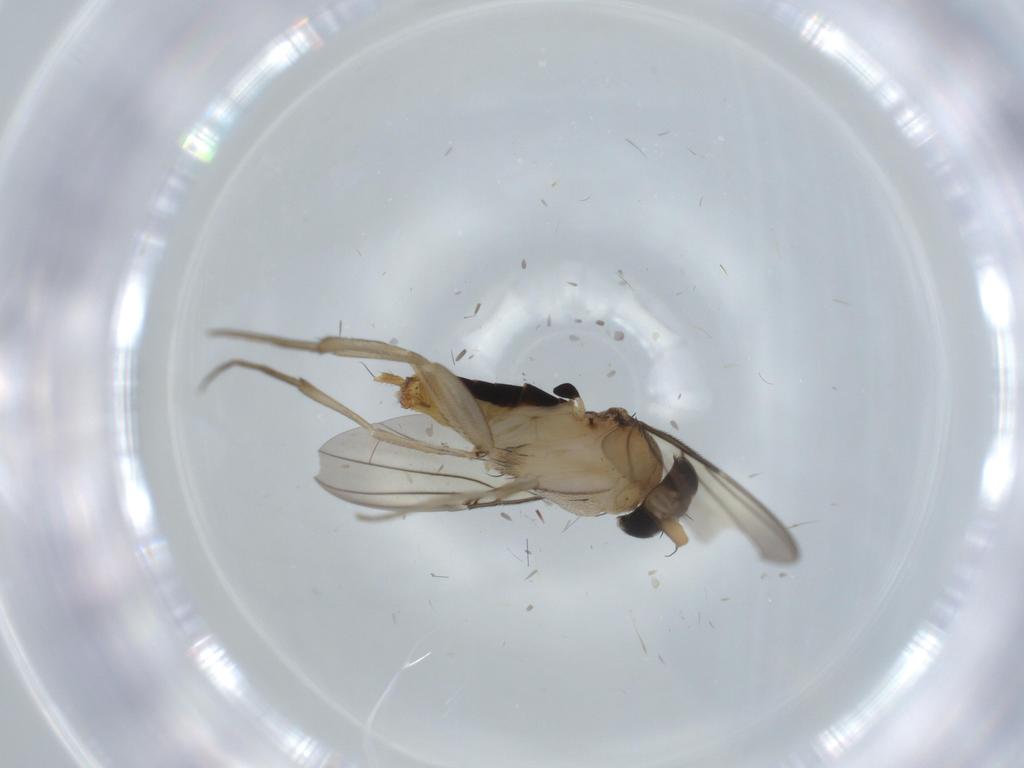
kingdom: Animalia
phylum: Arthropoda
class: Insecta
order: Diptera
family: Phoridae
